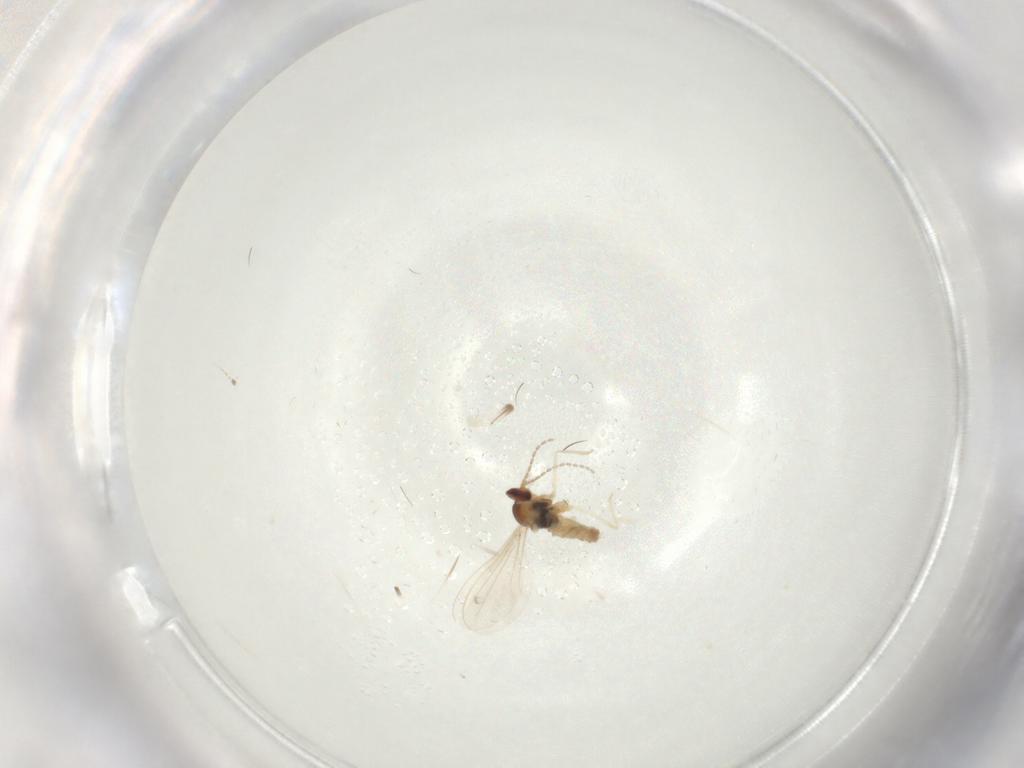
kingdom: Animalia
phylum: Arthropoda
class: Insecta
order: Diptera
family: Cecidomyiidae
